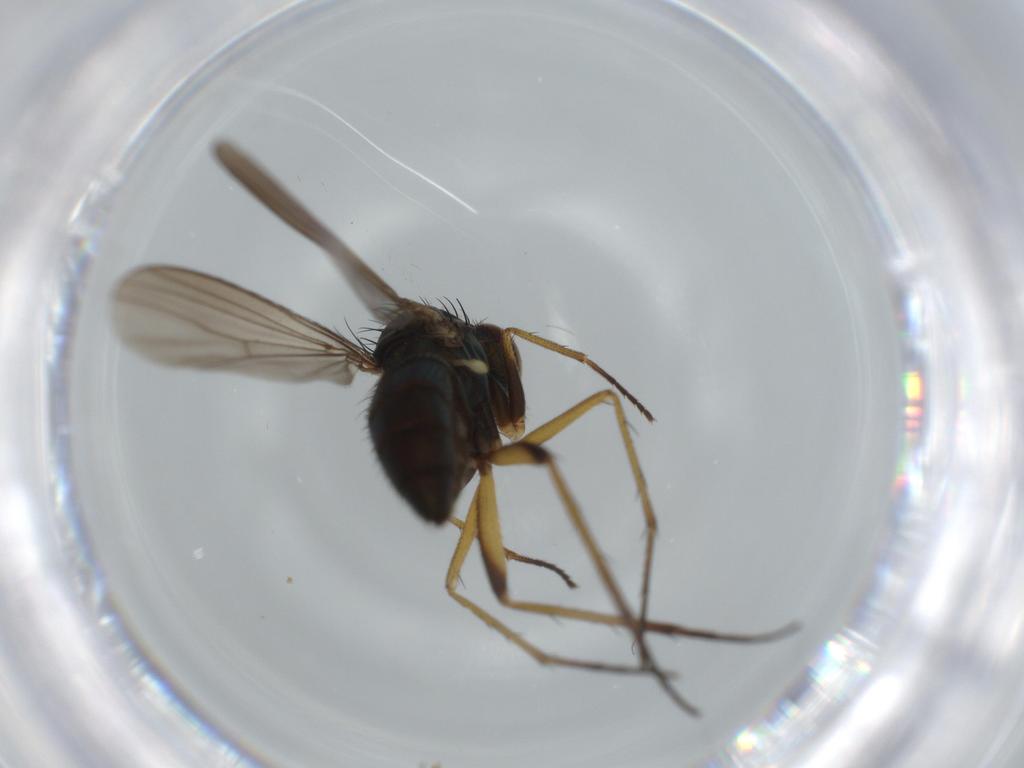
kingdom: Animalia
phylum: Arthropoda
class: Insecta
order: Diptera
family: Dolichopodidae
